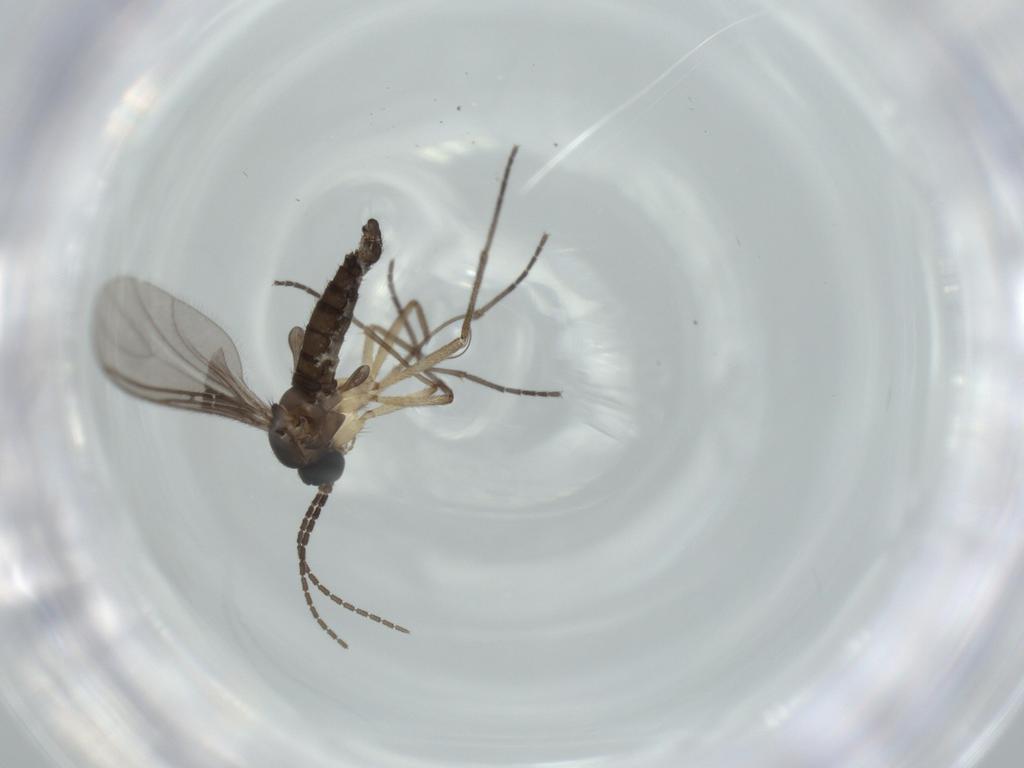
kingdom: Animalia
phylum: Arthropoda
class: Insecta
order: Diptera
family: Sciaridae
